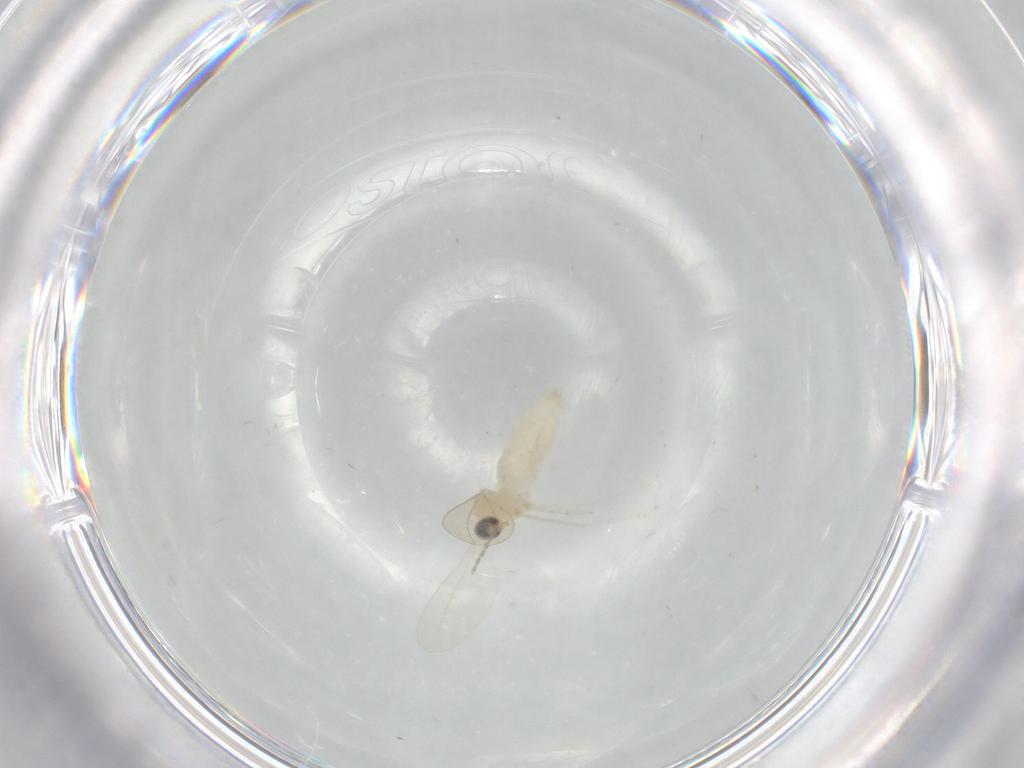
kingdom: Animalia
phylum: Arthropoda
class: Insecta
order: Diptera
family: Cecidomyiidae
